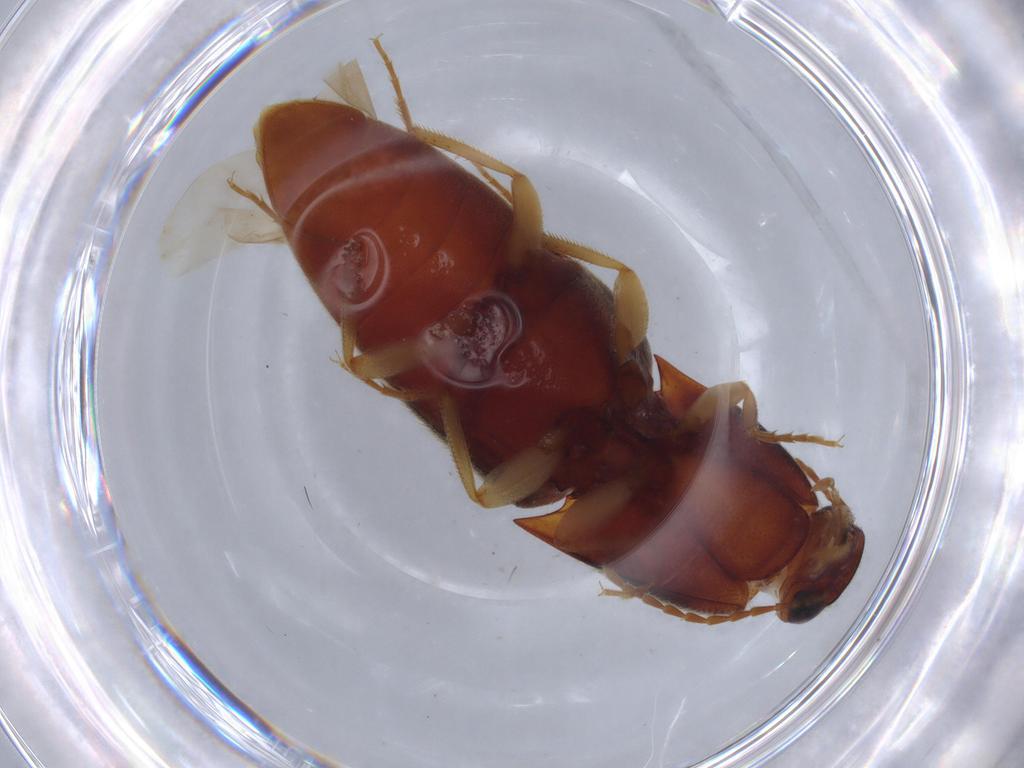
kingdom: Animalia
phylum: Arthropoda
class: Insecta
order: Coleoptera
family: Elateridae
